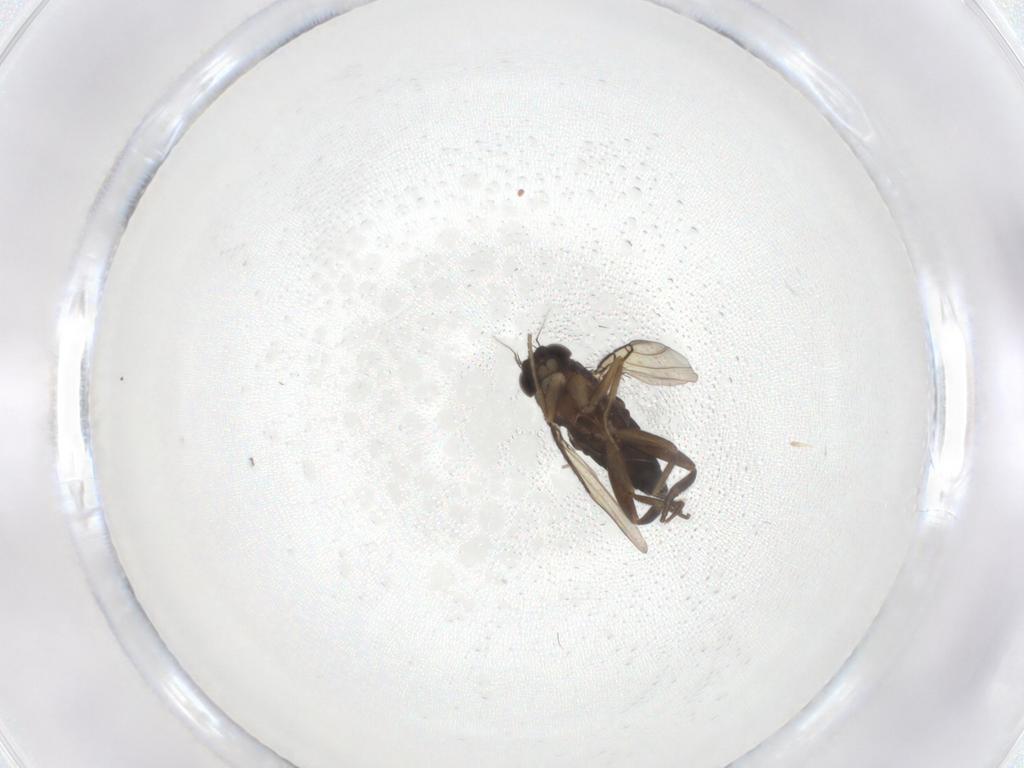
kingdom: Animalia
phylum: Arthropoda
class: Insecta
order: Diptera
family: Phoridae
